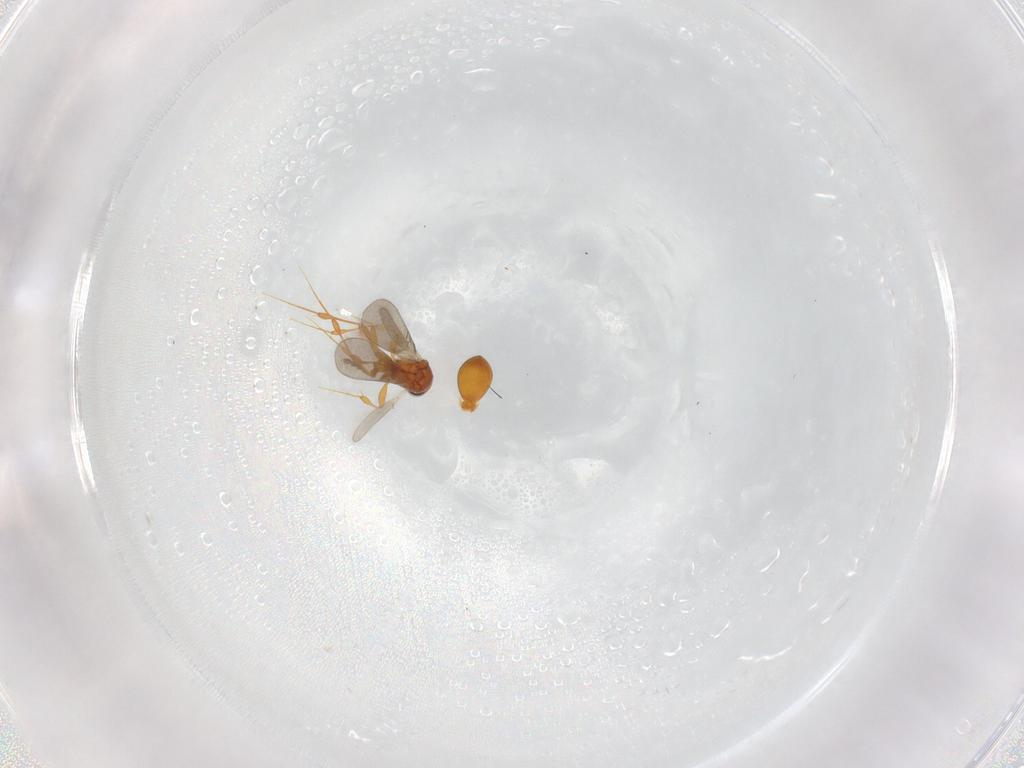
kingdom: Animalia
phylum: Arthropoda
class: Insecta
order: Hymenoptera
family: Platygastridae
